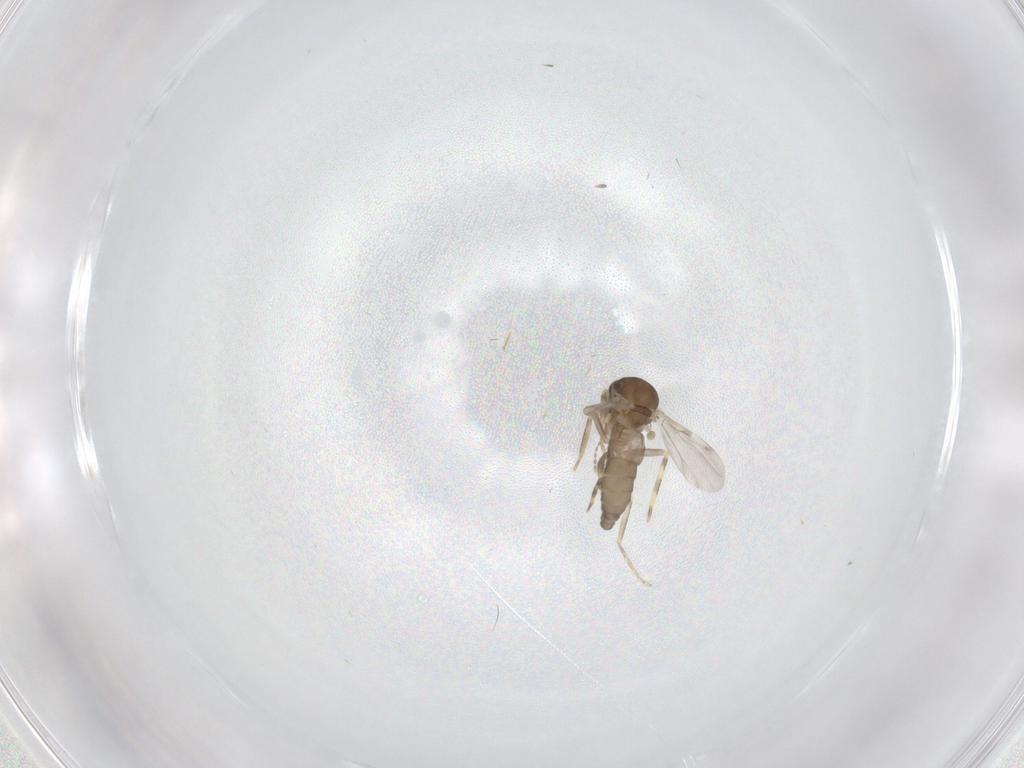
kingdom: Animalia
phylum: Arthropoda
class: Insecta
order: Diptera
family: Ceratopogonidae
